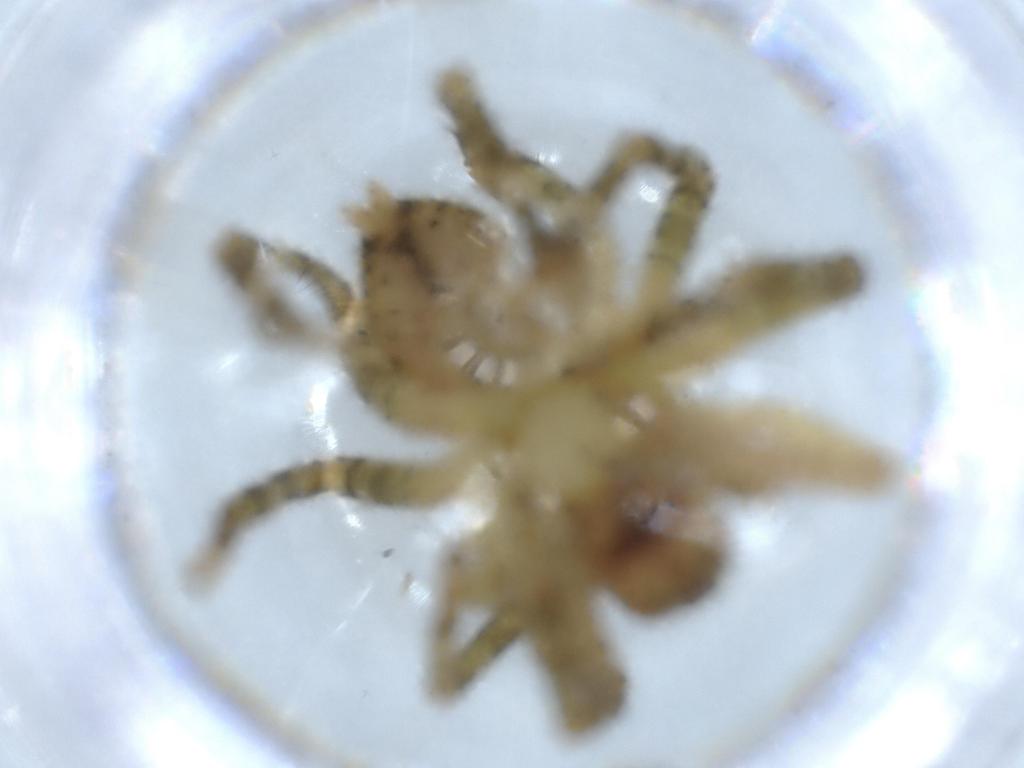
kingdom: Animalia
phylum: Arthropoda
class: Arachnida
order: Araneae
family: Ctenidae
